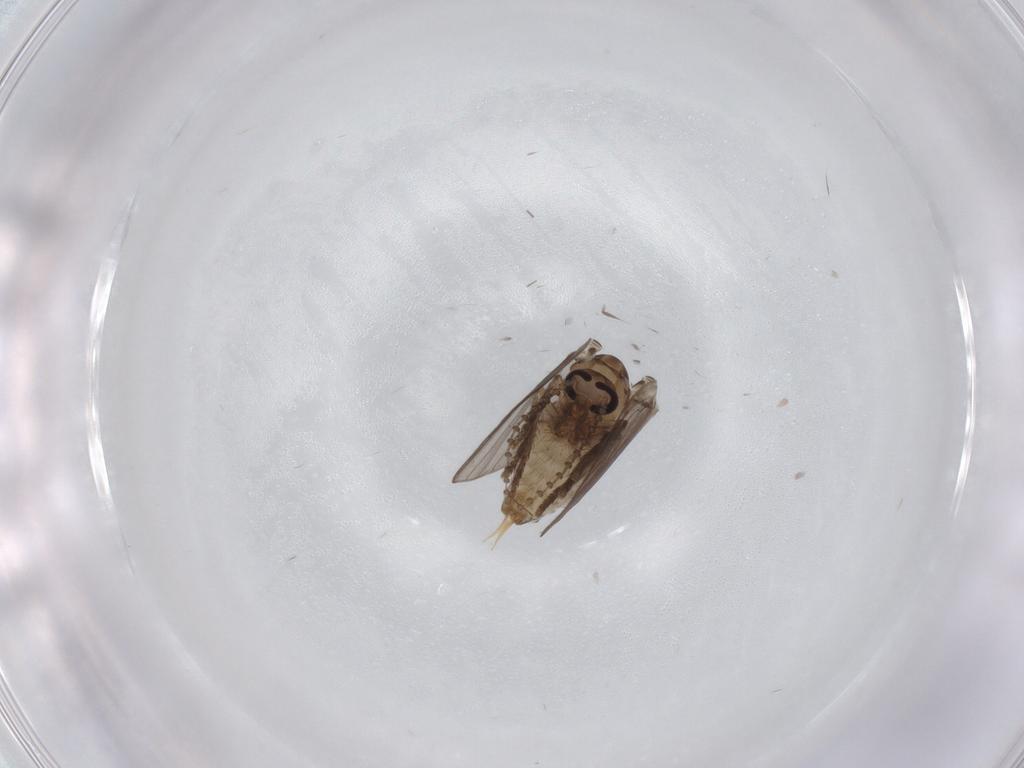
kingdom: Animalia
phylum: Arthropoda
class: Insecta
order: Diptera
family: Psychodidae
